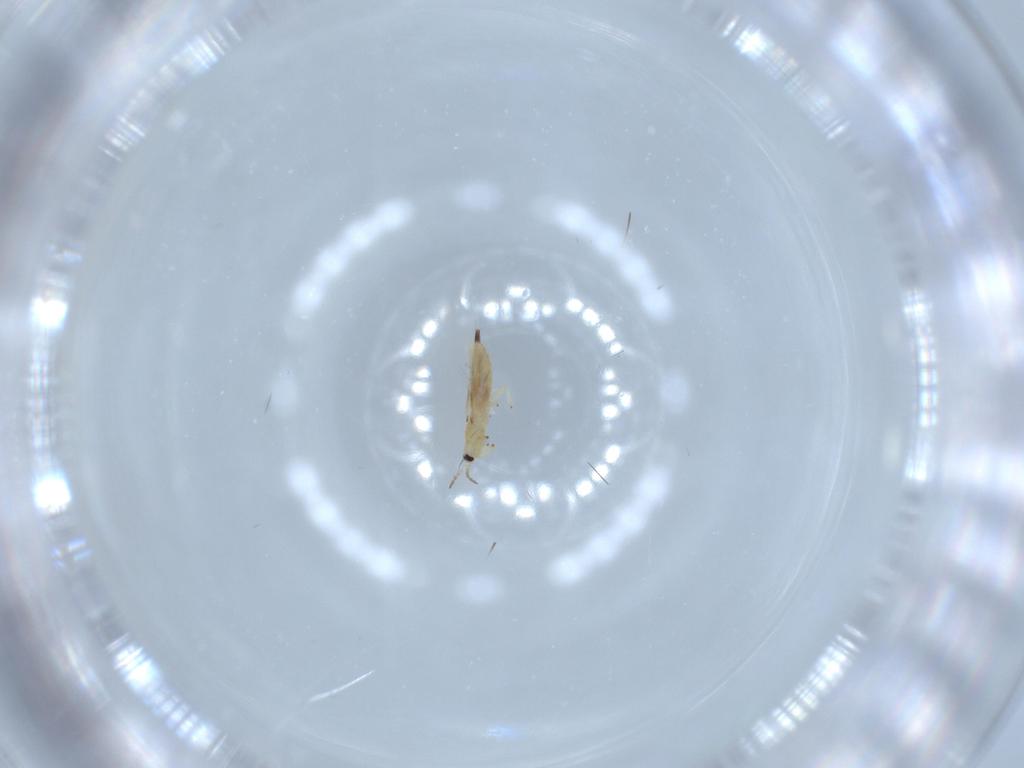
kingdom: Animalia
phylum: Arthropoda
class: Insecta
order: Thysanoptera
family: Phlaeothripidae
